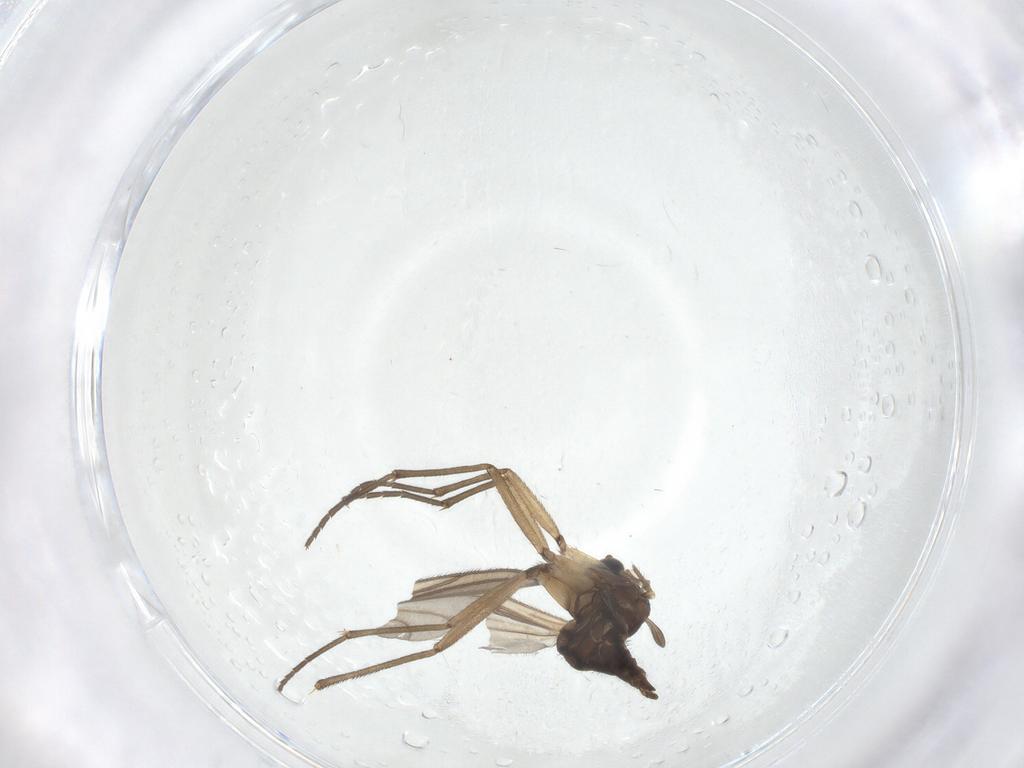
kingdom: Animalia
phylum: Arthropoda
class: Insecta
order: Diptera
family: Sciaridae
